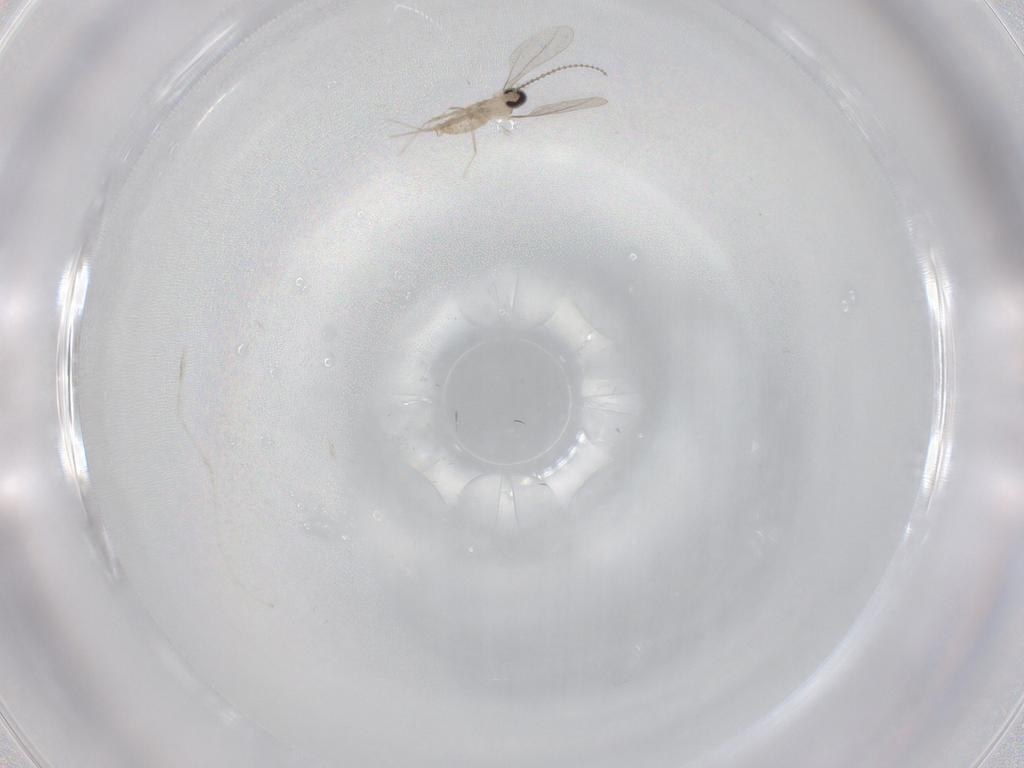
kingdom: Animalia
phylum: Arthropoda
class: Insecta
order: Diptera
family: Cecidomyiidae
